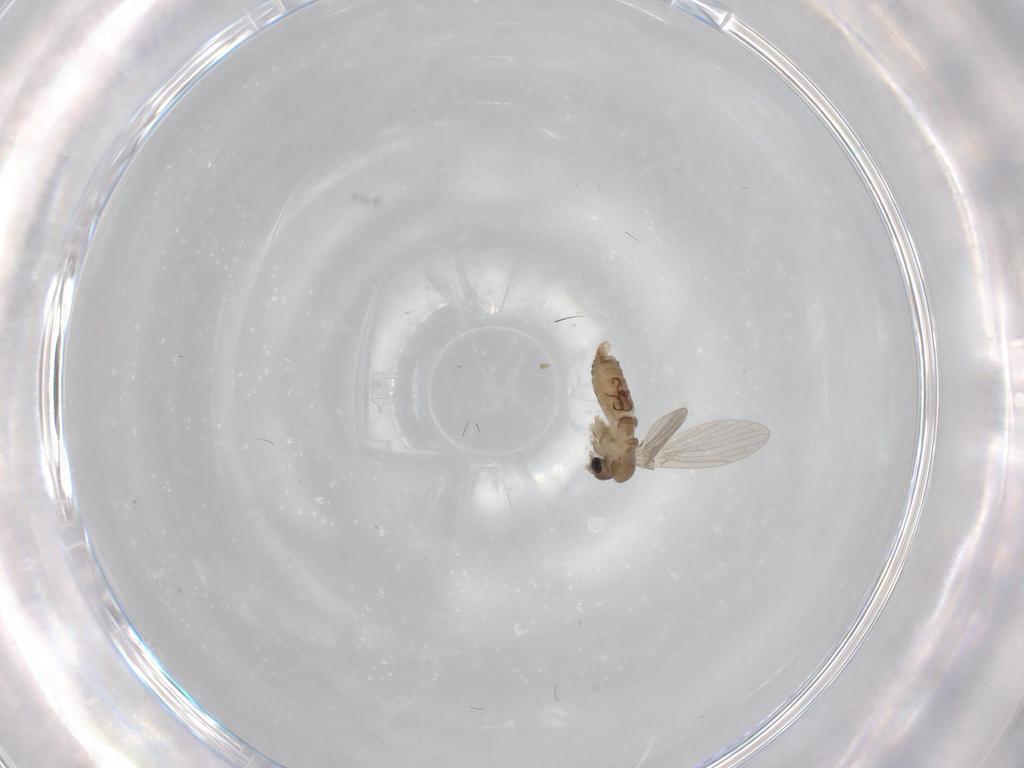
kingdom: Animalia
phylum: Arthropoda
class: Insecta
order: Diptera
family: Psychodidae
